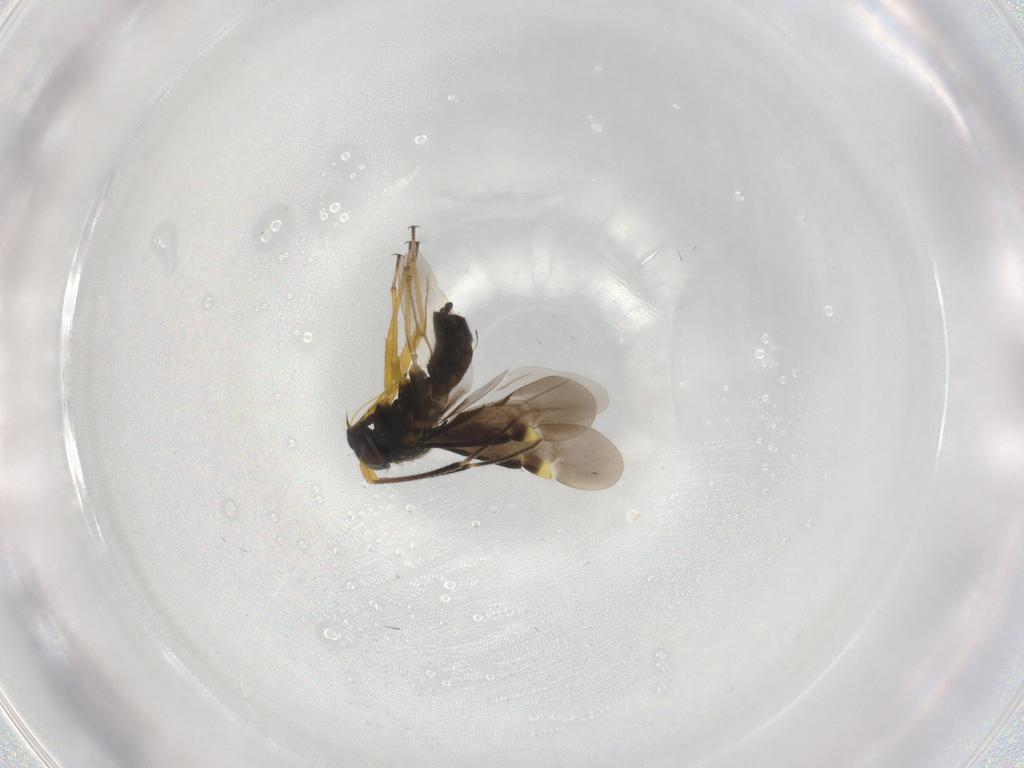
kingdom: Animalia
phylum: Arthropoda
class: Insecta
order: Hemiptera
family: Miridae
